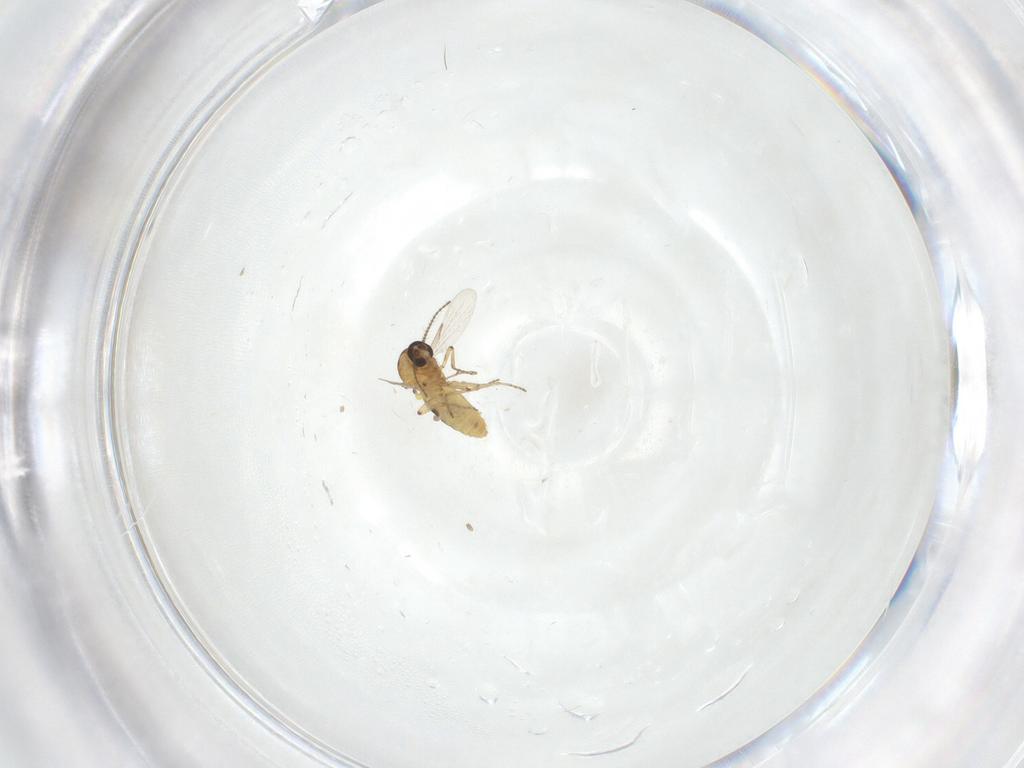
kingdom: Animalia
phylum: Arthropoda
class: Insecta
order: Diptera
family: Ceratopogonidae
